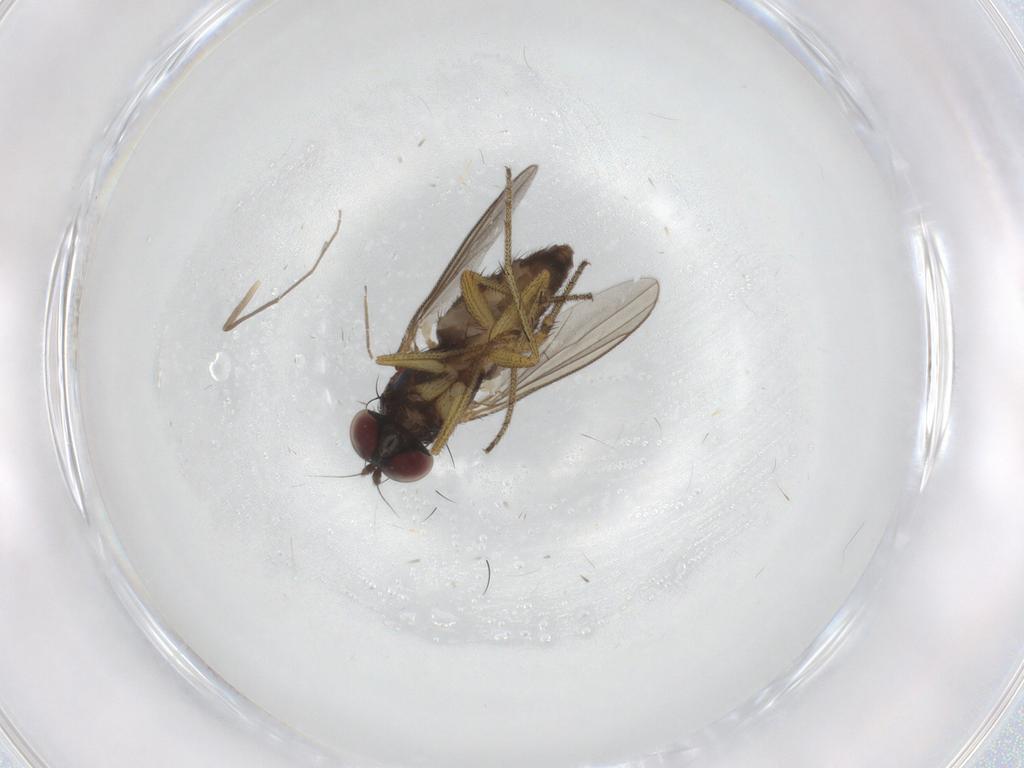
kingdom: Animalia
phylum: Arthropoda
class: Insecta
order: Diptera
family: Dolichopodidae
